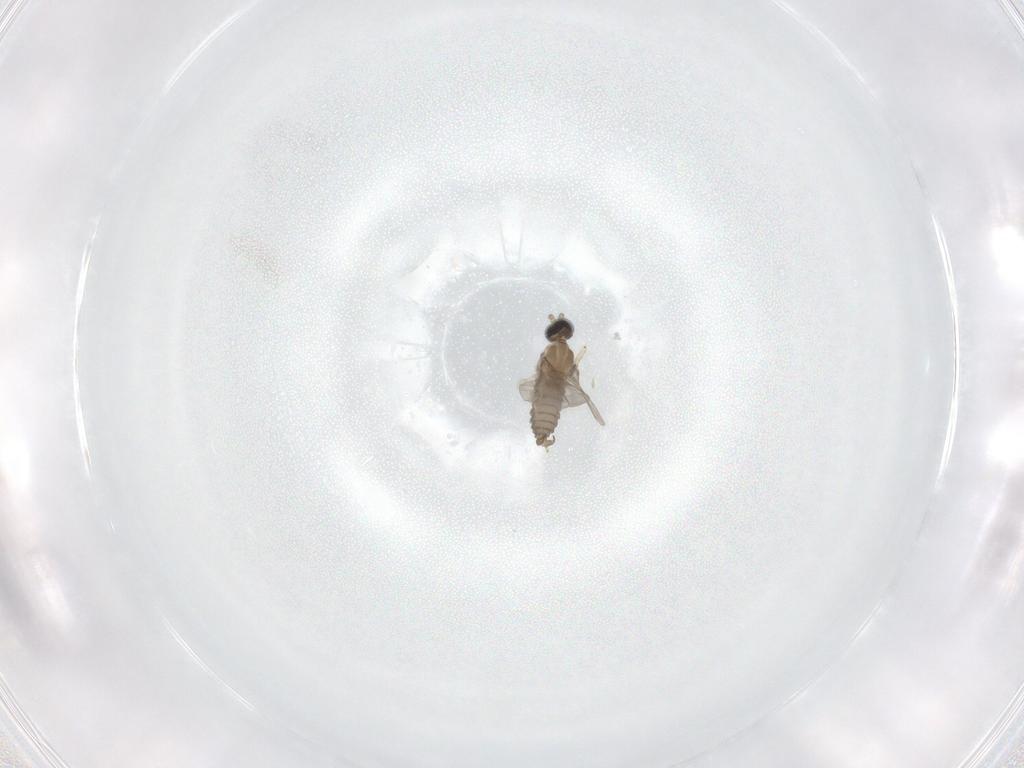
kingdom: Animalia
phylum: Arthropoda
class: Insecta
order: Diptera
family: Cecidomyiidae
